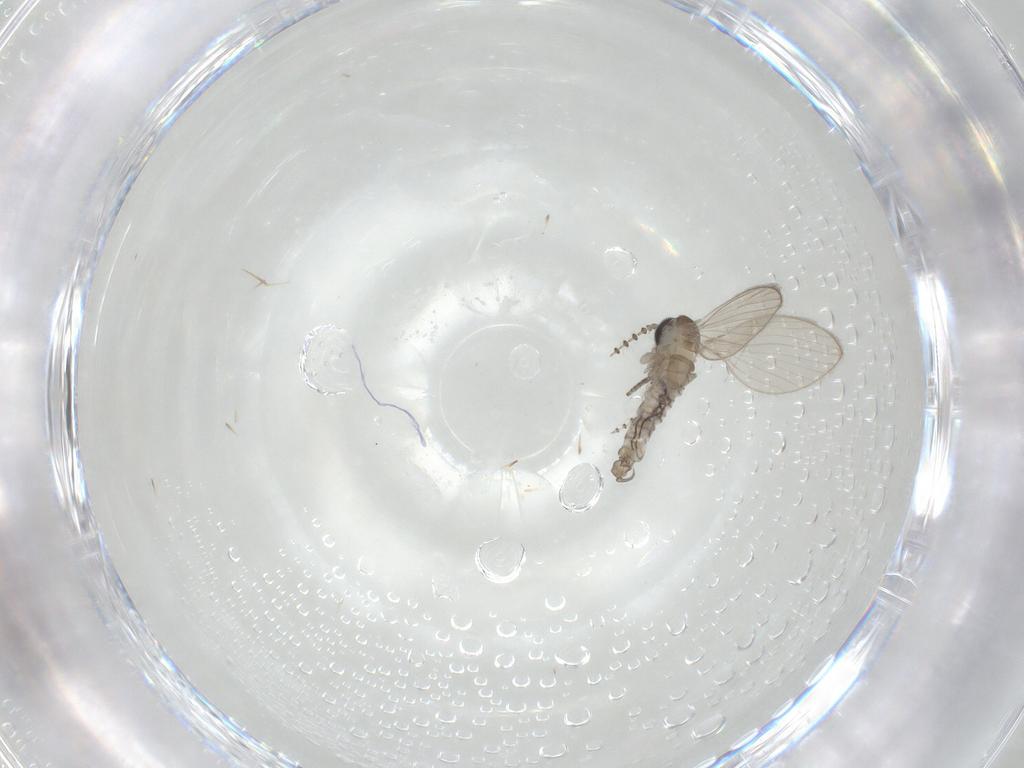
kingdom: Animalia
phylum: Arthropoda
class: Insecta
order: Diptera
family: Psychodidae
